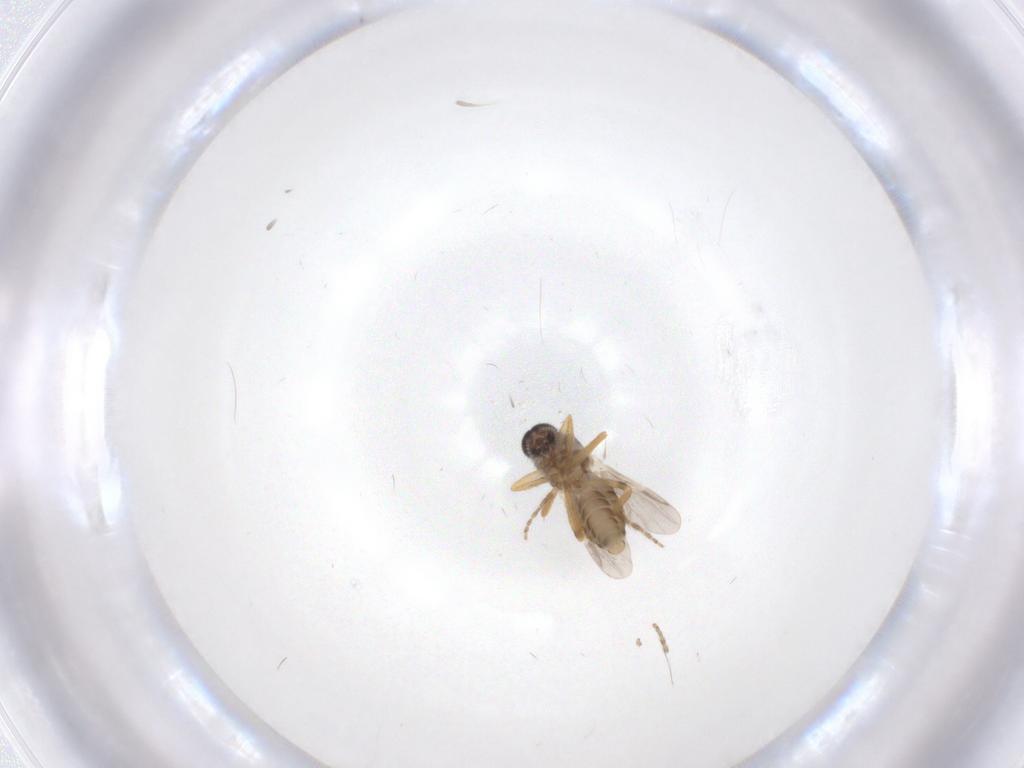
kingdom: Animalia
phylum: Arthropoda
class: Insecta
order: Diptera
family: Ceratopogonidae
